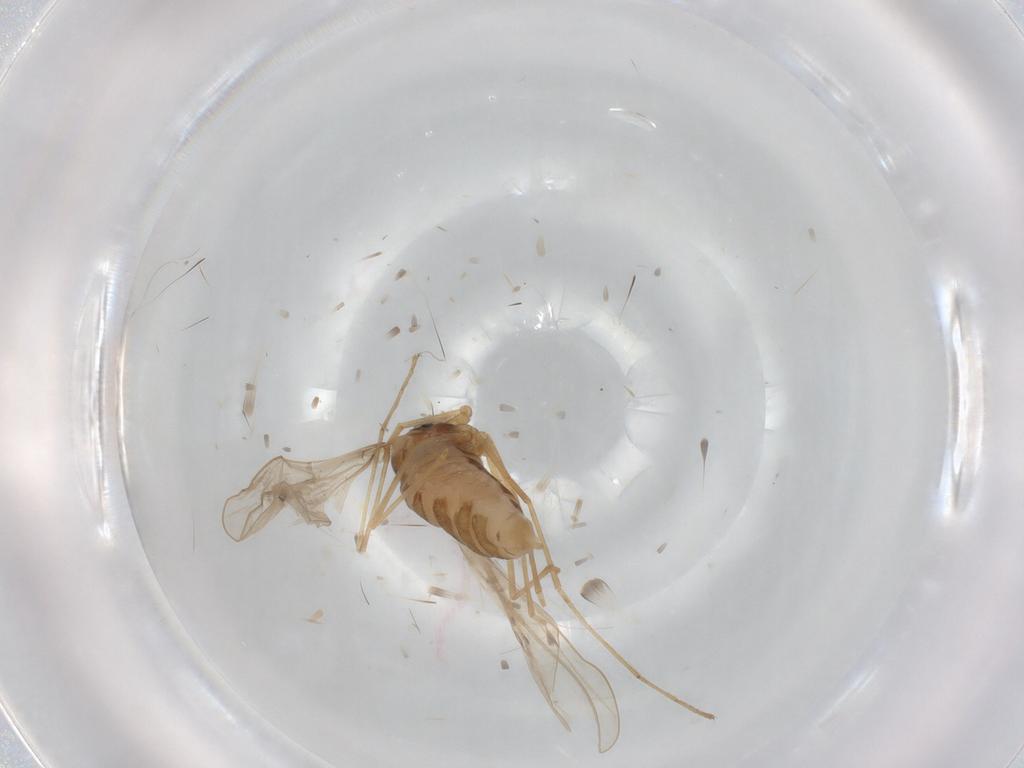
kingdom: Animalia
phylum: Arthropoda
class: Insecta
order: Diptera
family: Cecidomyiidae
